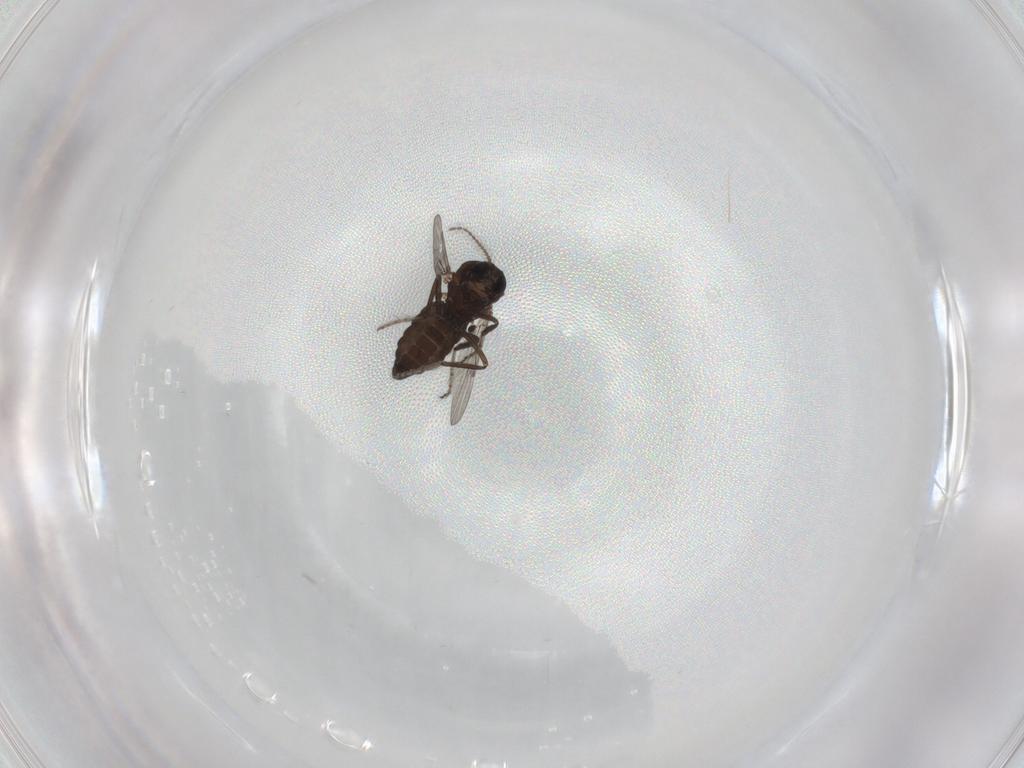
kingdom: Animalia
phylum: Arthropoda
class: Insecta
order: Diptera
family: Ceratopogonidae
